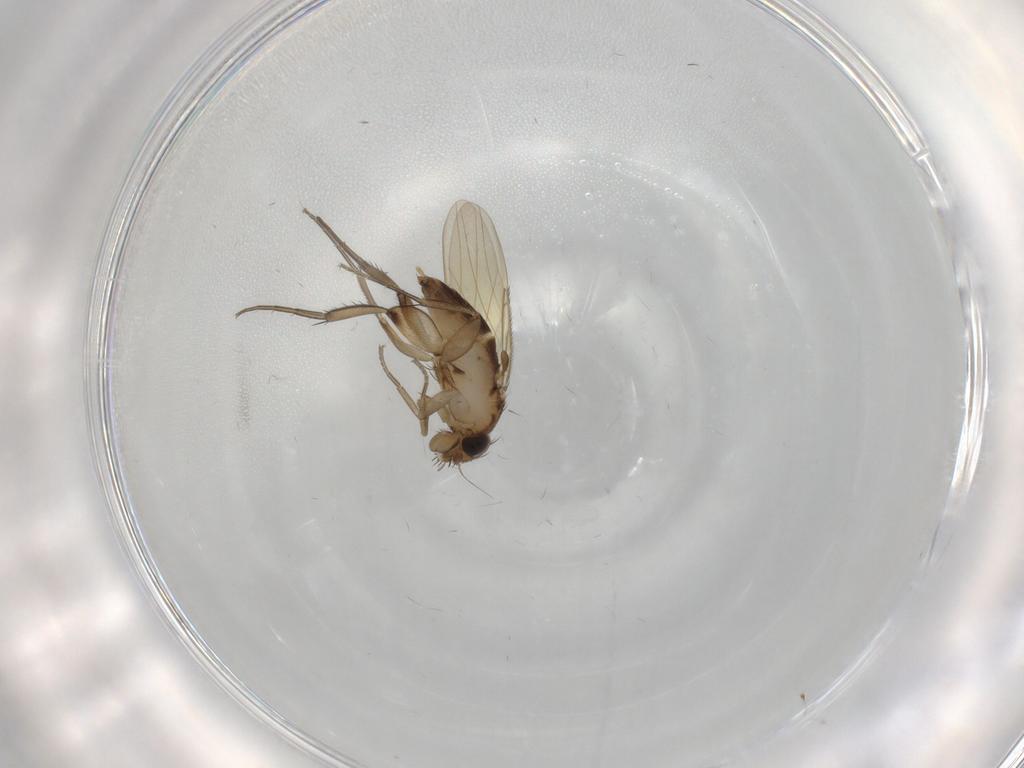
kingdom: Animalia
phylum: Arthropoda
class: Insecta
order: Diptera
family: Phoridae
